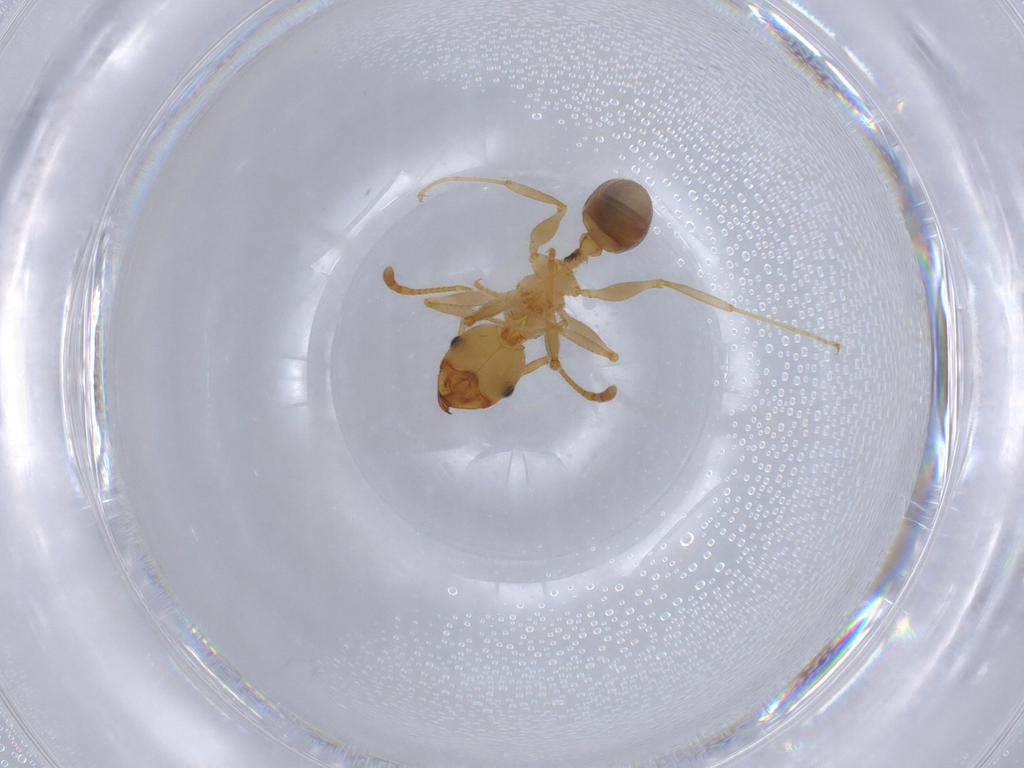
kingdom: Animalia
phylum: Arthropoda
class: Insecta
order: Hymenoptera
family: Formicidae
